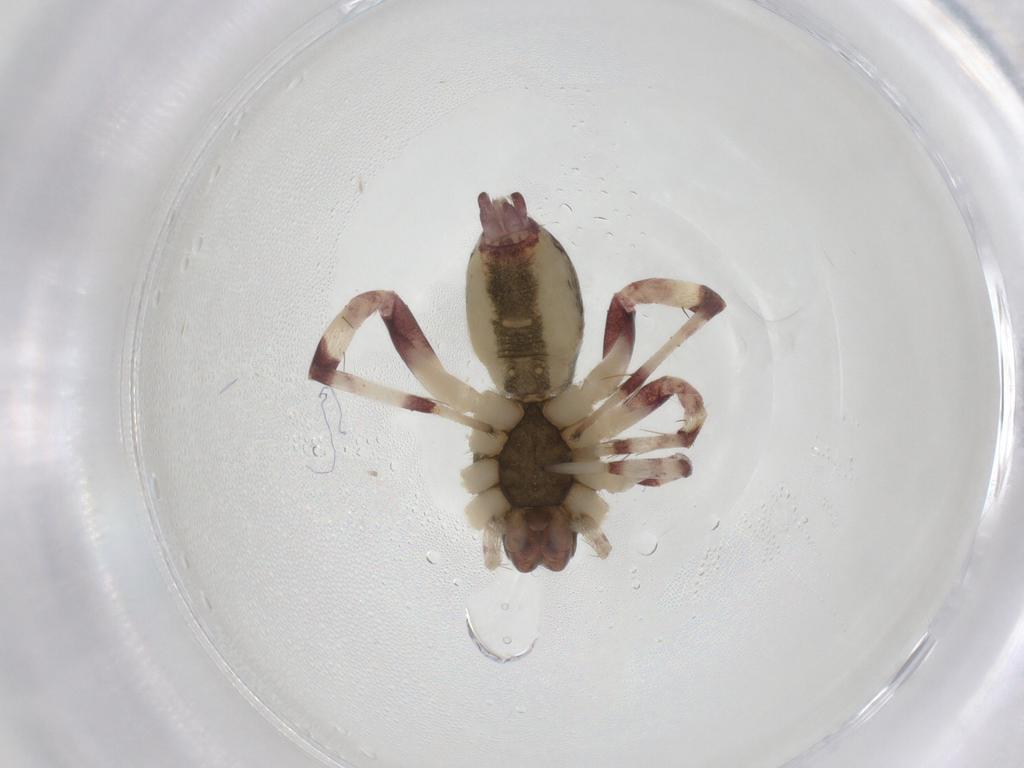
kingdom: Animalia
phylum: Arthropoda
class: Arachnida
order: Araneae
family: Anyphaenidae
